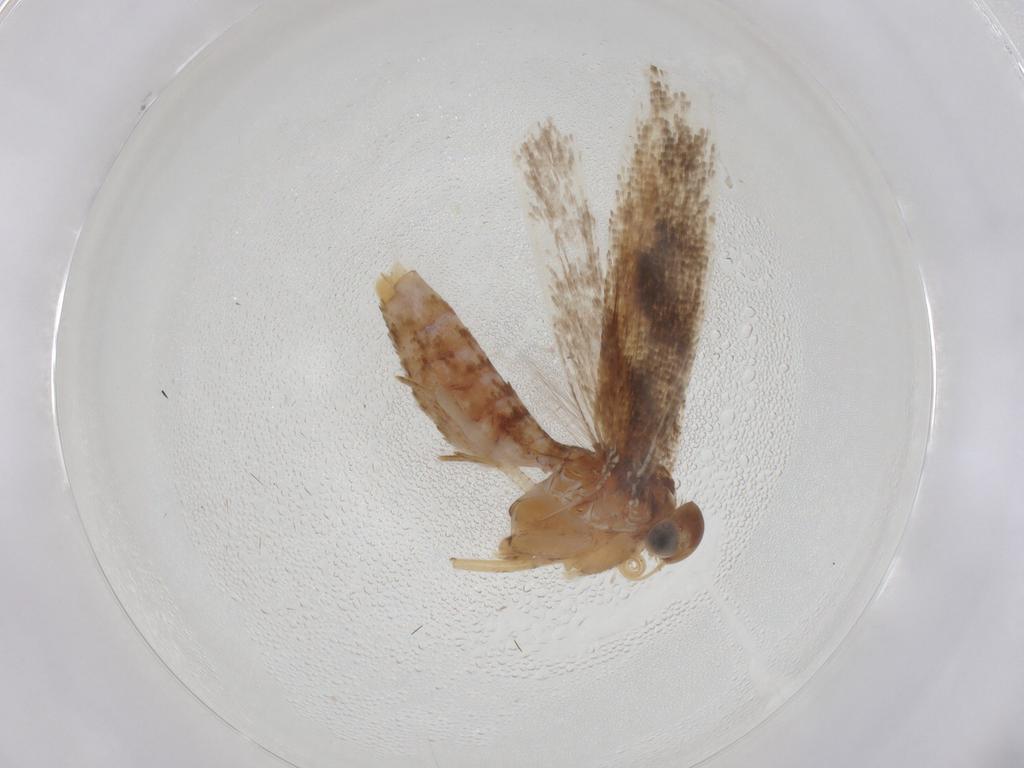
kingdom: Animalia
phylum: Arthropoda
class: Insecta
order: Lepidoptera
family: Gelechiidae
